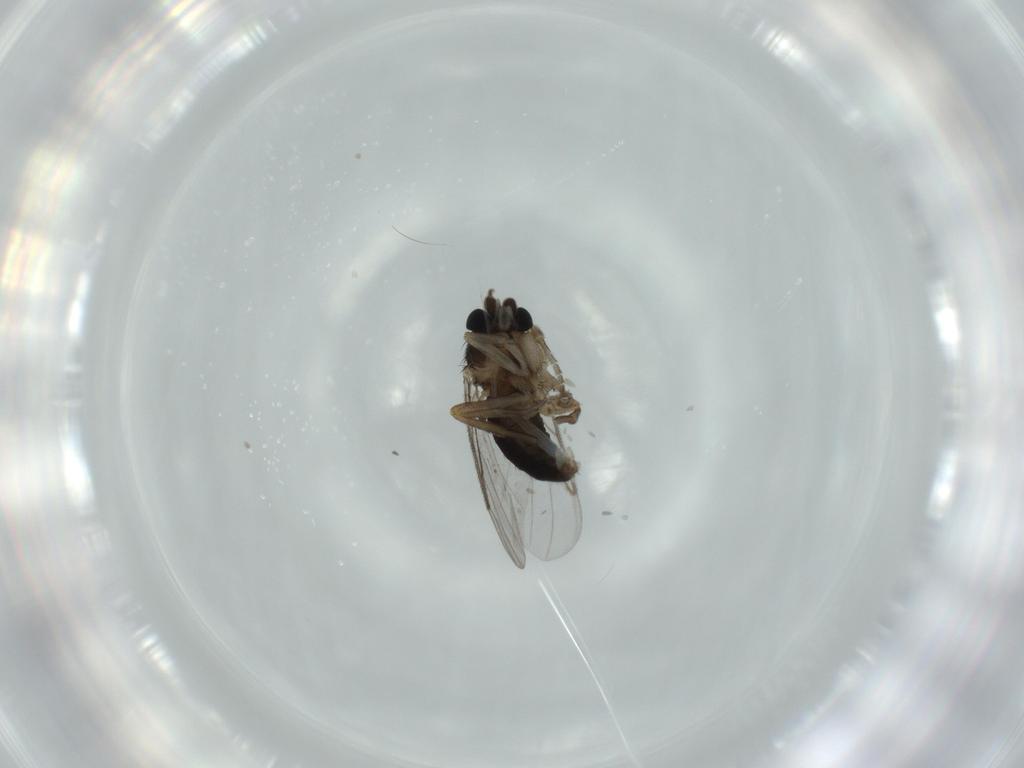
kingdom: Animalia
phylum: Arthropoda
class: Insecta
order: Diptera
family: Phoridae
